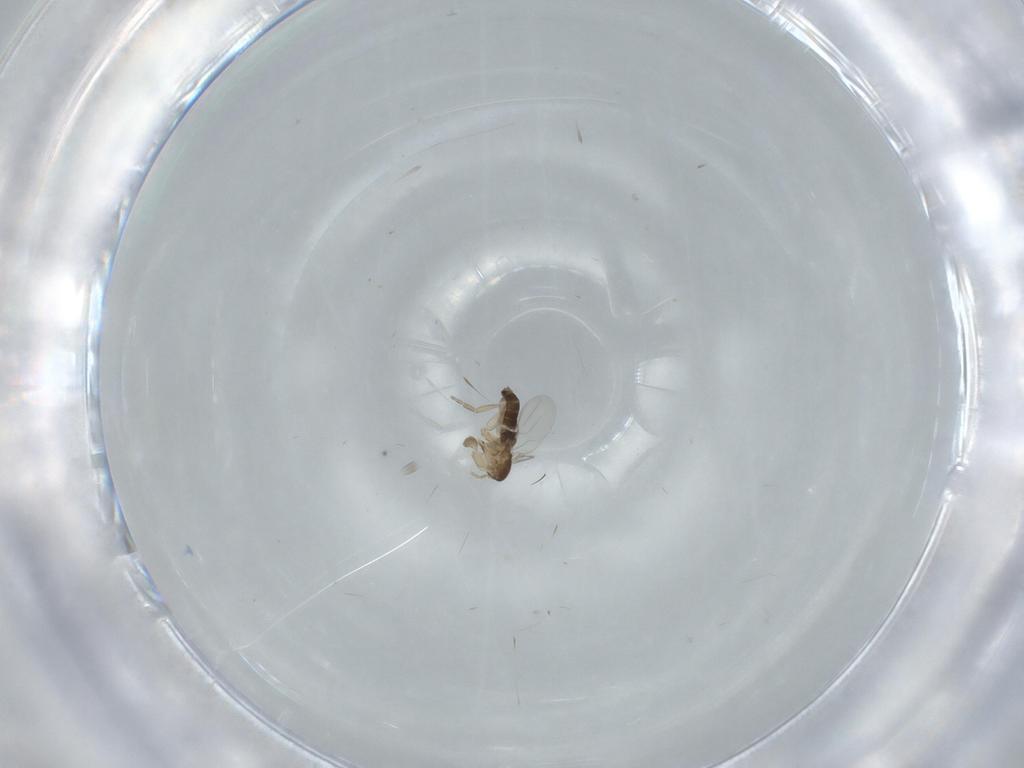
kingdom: Animalia
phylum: Arthropoda
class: Insecta
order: Diptera
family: Phoridae
